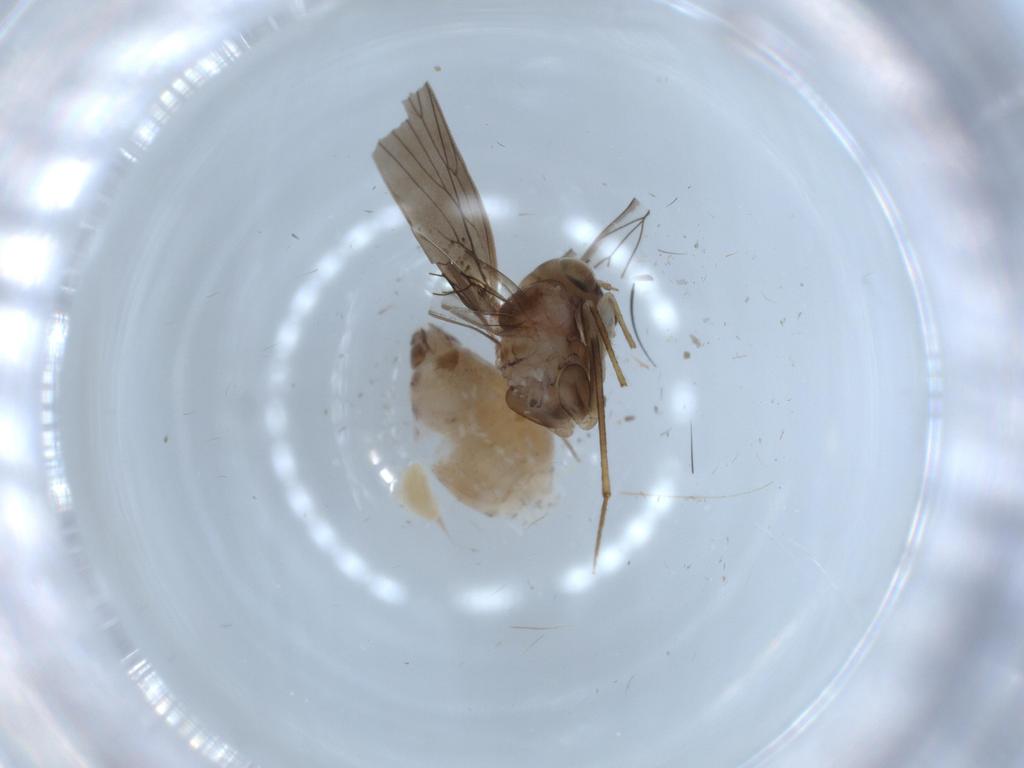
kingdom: Animalia
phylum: Arthropoda
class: Insecta
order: Psocodea
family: Lepidopsocidae
